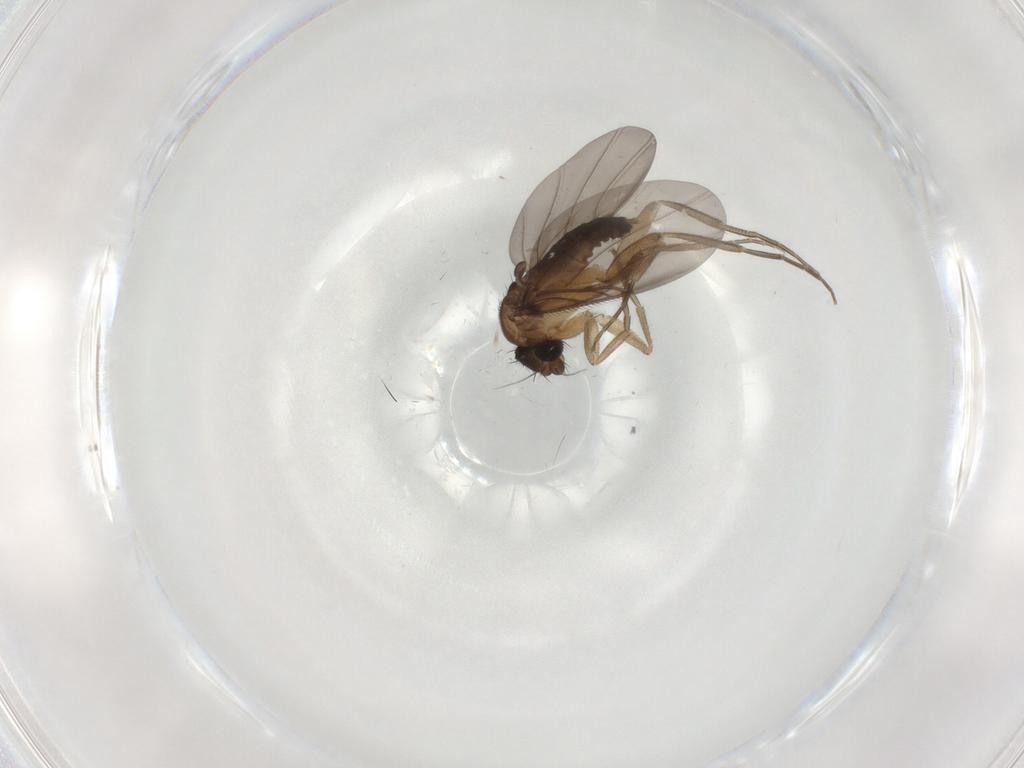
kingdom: Animalia
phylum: Arthropoda
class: Insecta
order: Diptera
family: Phoridae
